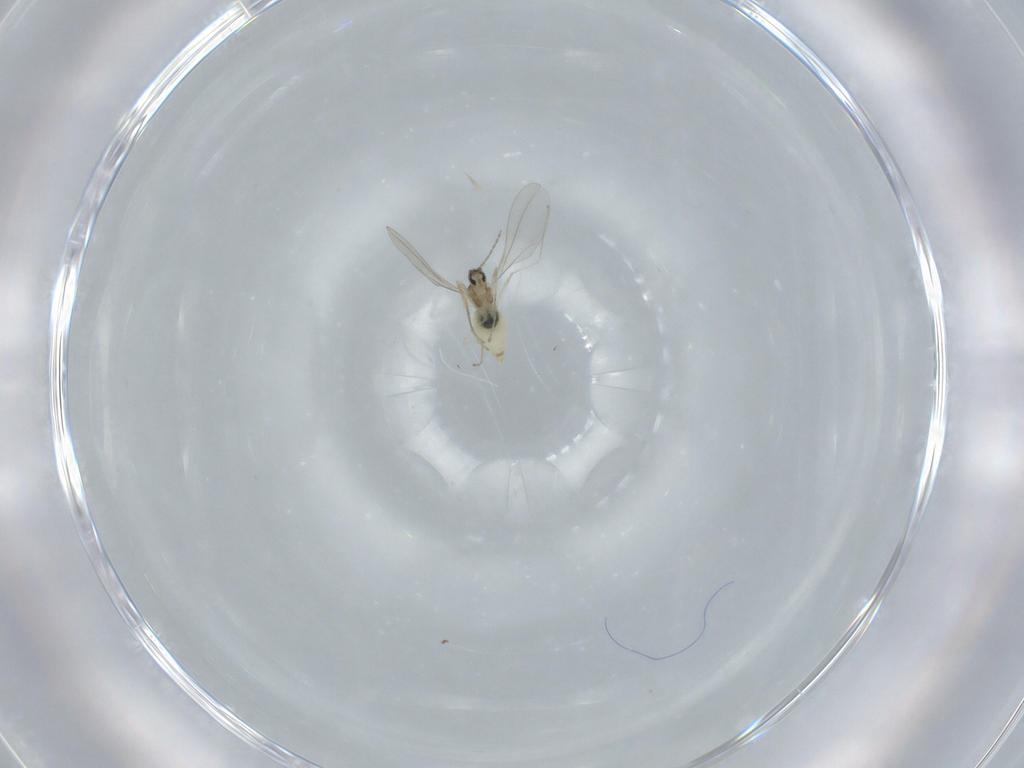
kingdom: Animalia
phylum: Arthropoda
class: Insecta
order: Diptera
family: Cecidomyiidae
